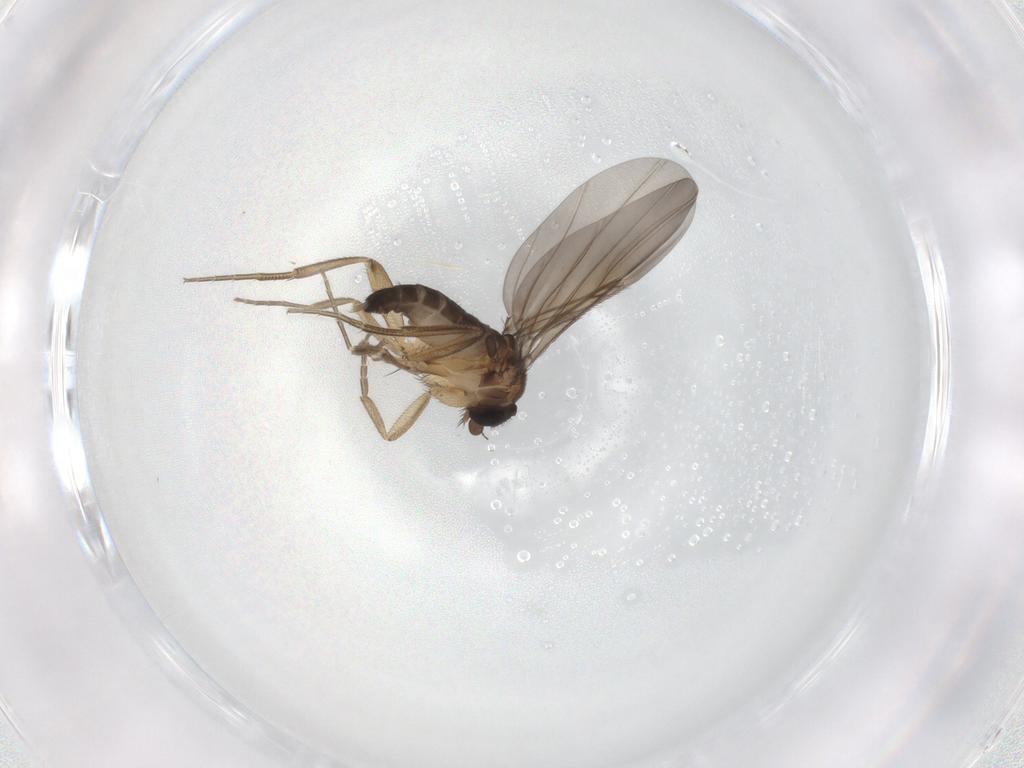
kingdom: Animalia
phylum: Arthropoda
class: Insecta
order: Diptera
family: Phoridae
